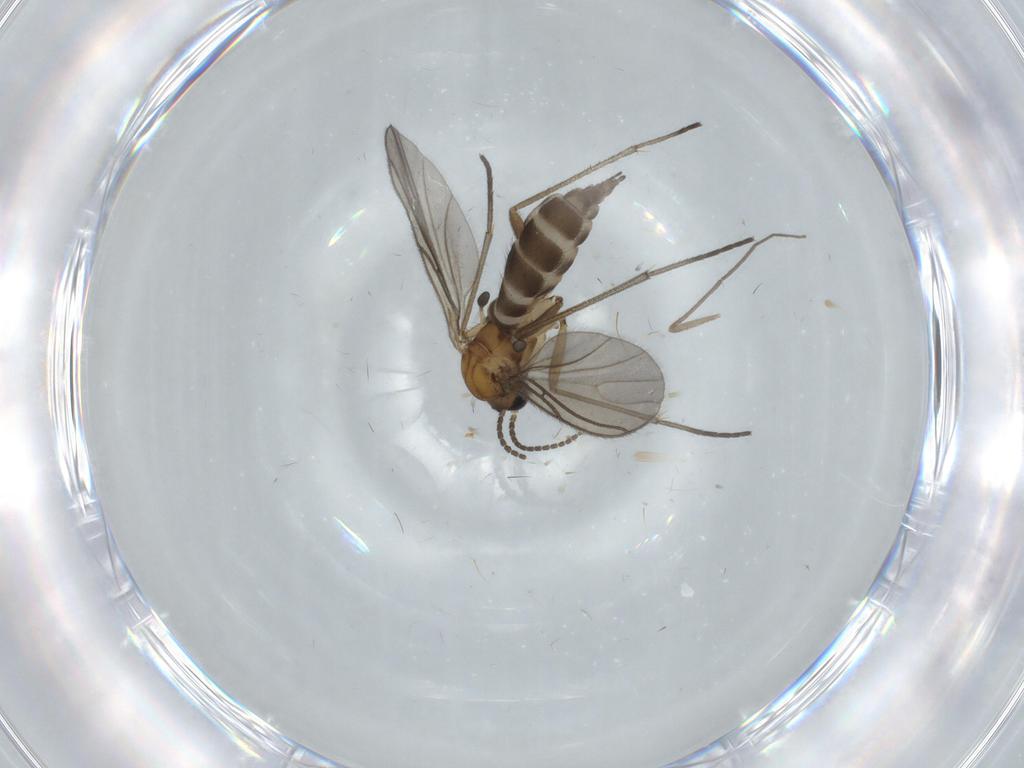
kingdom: Animalia
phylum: Arthropoda
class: Insecta
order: Diptera
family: Sciaridae
